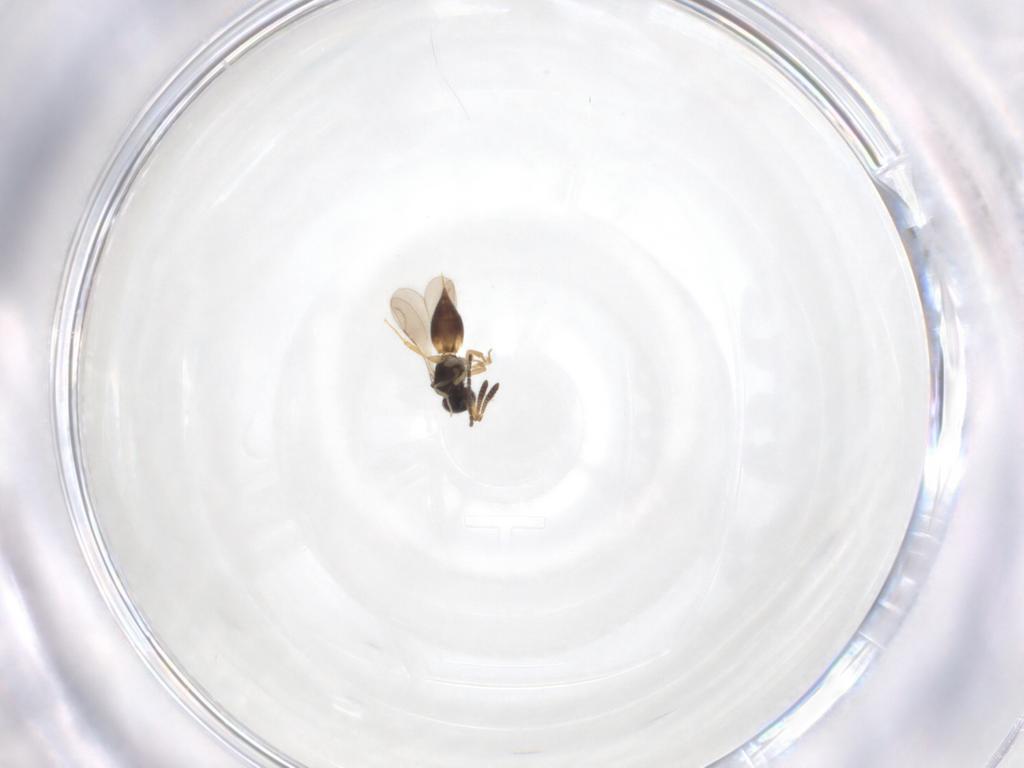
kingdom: Animalia
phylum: Arthropoda
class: Insecta
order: Hymenoptera
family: Ceraphronidae
